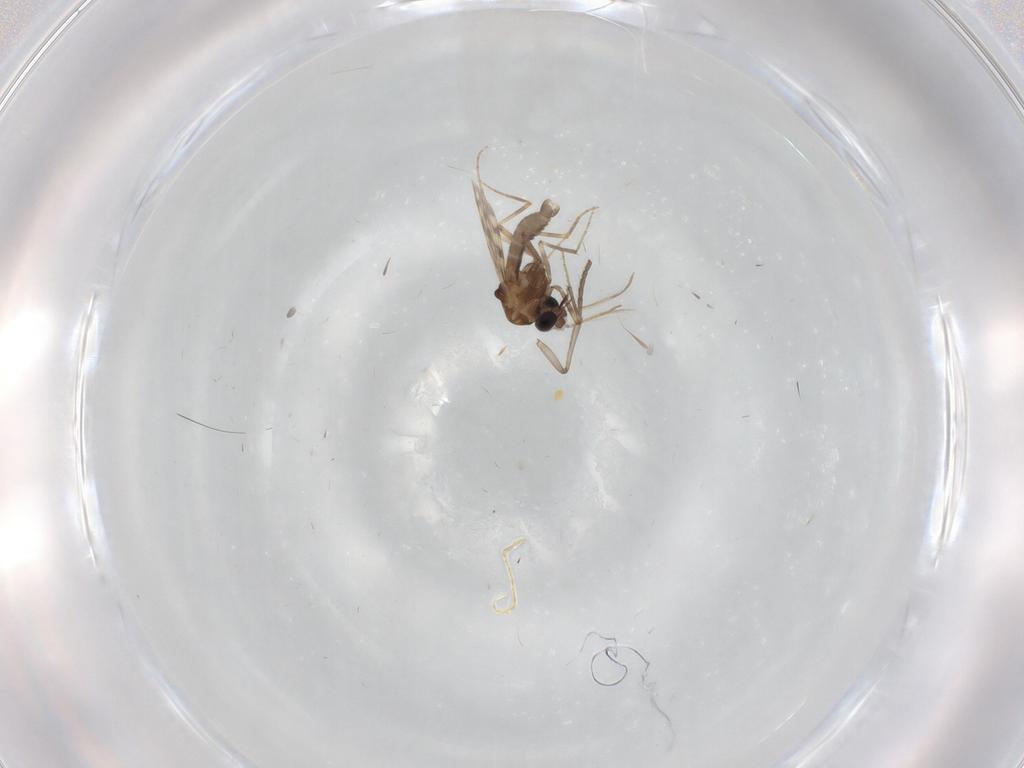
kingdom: Animalia
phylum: Arthropoda
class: Insecta
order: Diptera
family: Psychodidae
